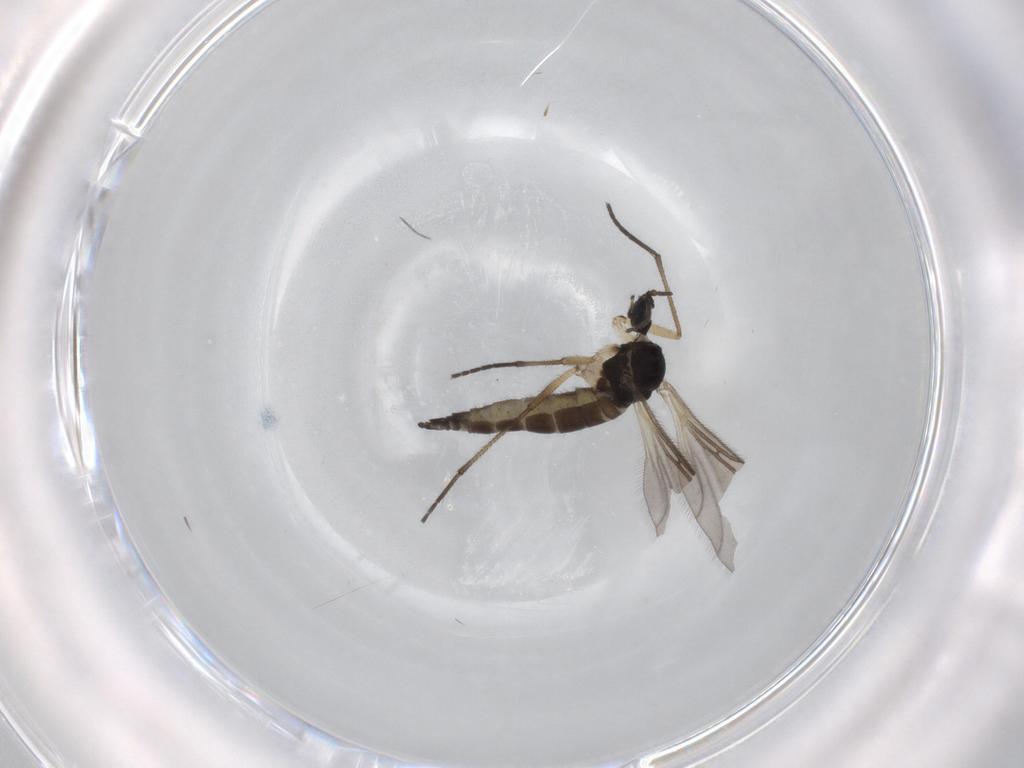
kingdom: Animalia
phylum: Arthropoda
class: Insecta
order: Diptera
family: Sciaridae
